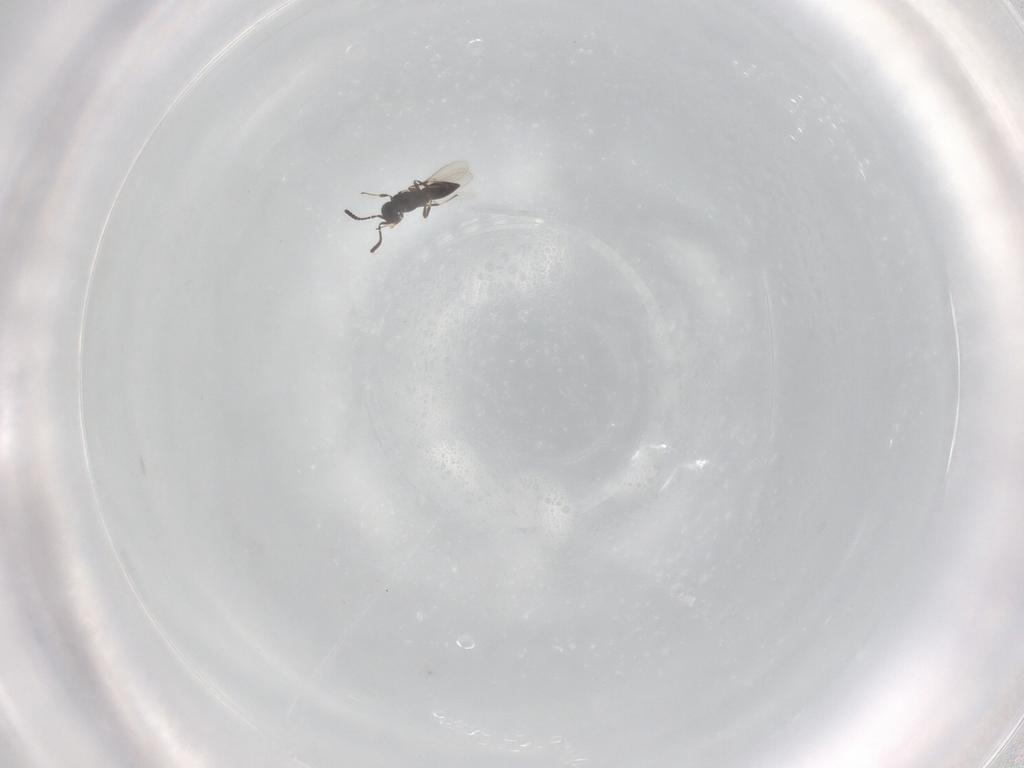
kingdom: Animalia
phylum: Arthropoda
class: Insecta
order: Hymenoptera
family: Scelionidae
